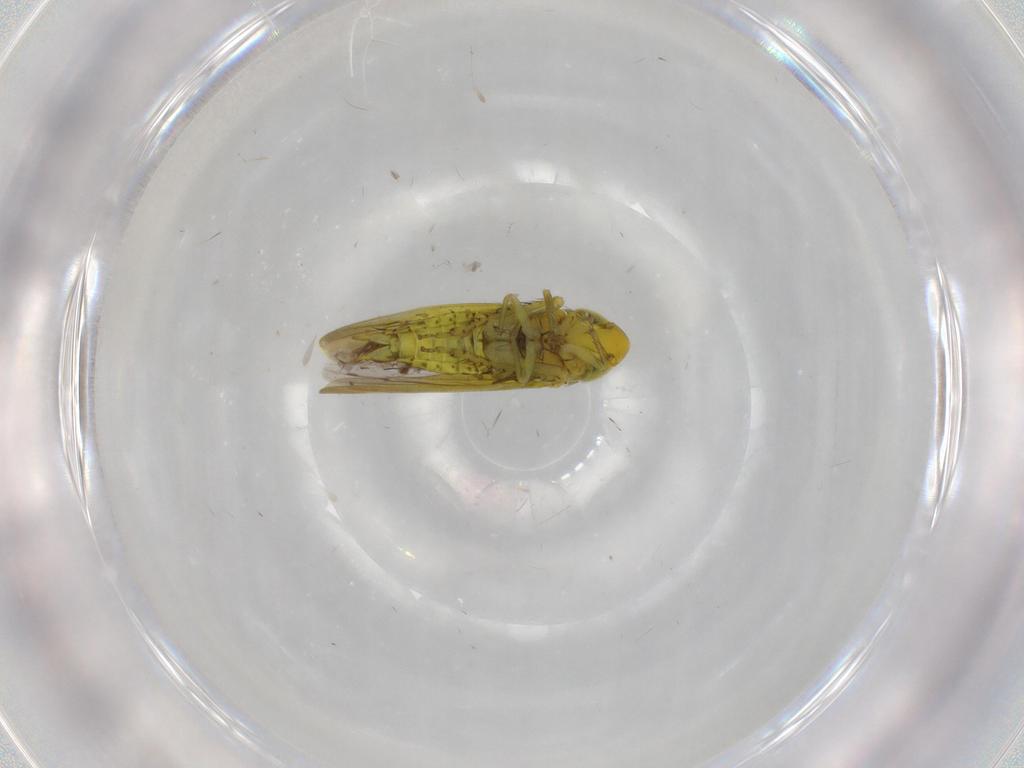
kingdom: Animalia
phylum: Arthropoda
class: Insecta
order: Hemiptera
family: Cicadellidae
